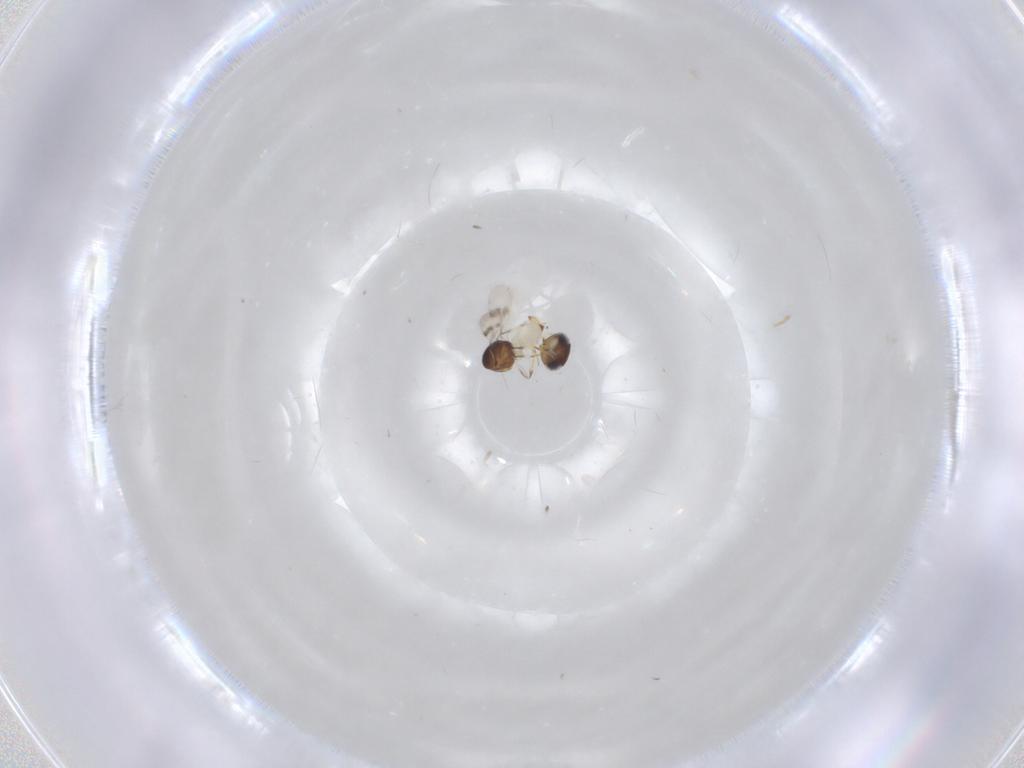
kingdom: Animalia
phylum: Arthropoda
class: Insecta
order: Hymenoptera
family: Scelionidae
